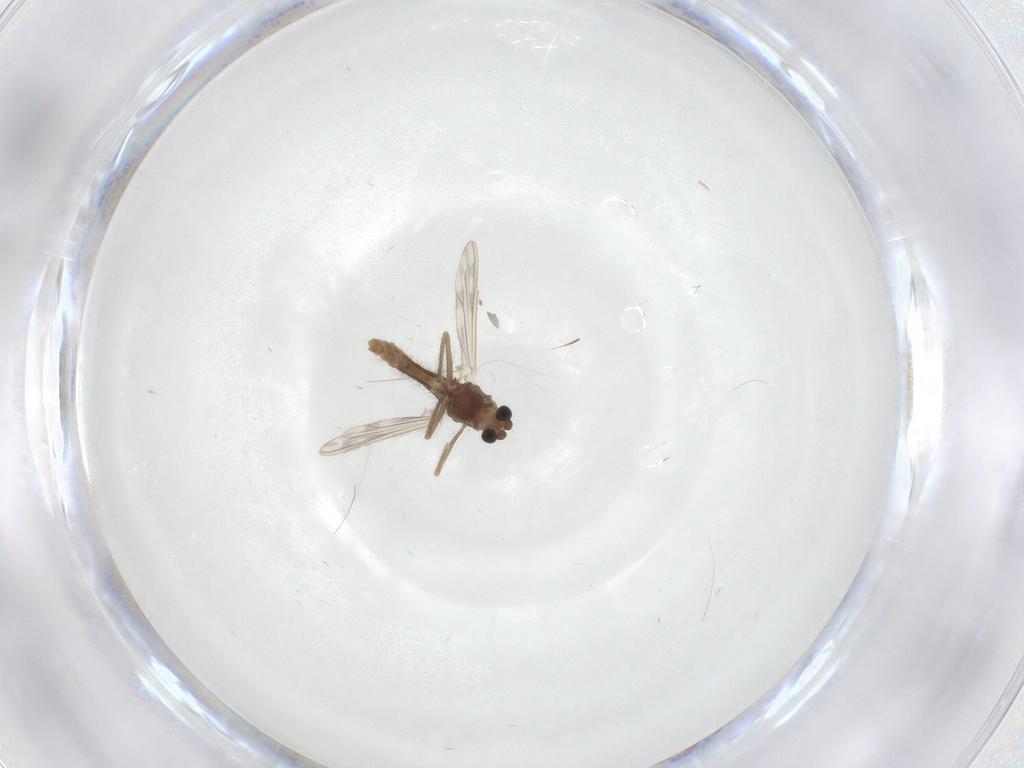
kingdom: Animalia
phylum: Arthropoda
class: Insecta
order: Diptera
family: Chironomidae
